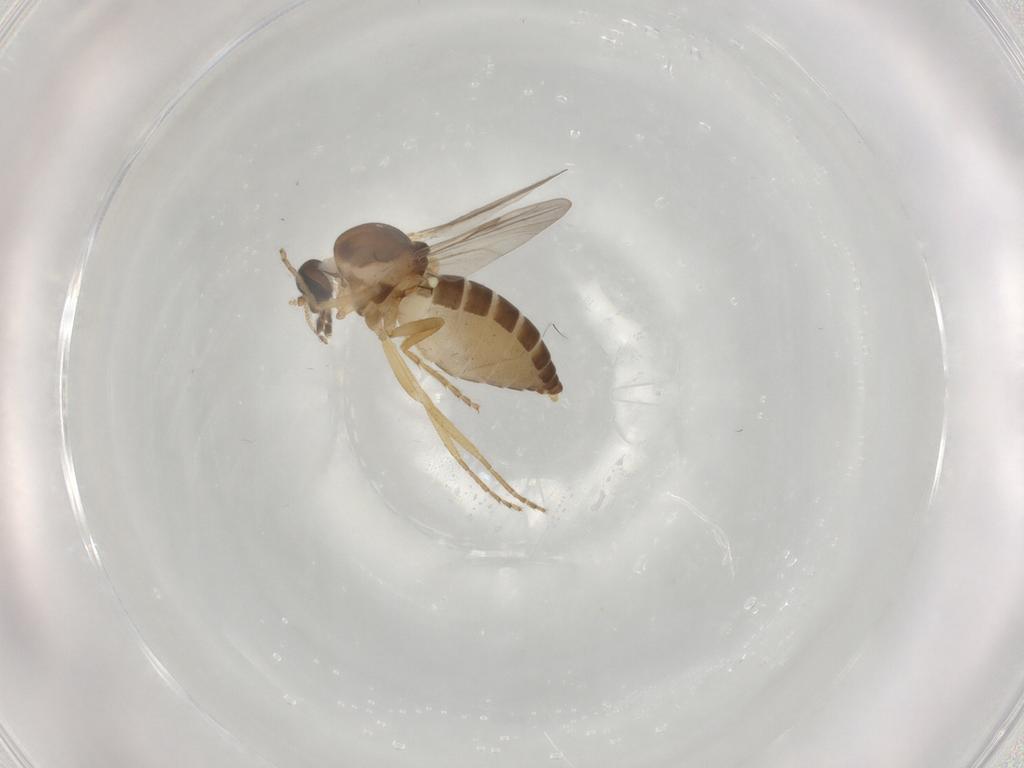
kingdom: Animalia
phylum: Arthropoda
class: Insecta
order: Diptera
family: Ceratopogonidae
